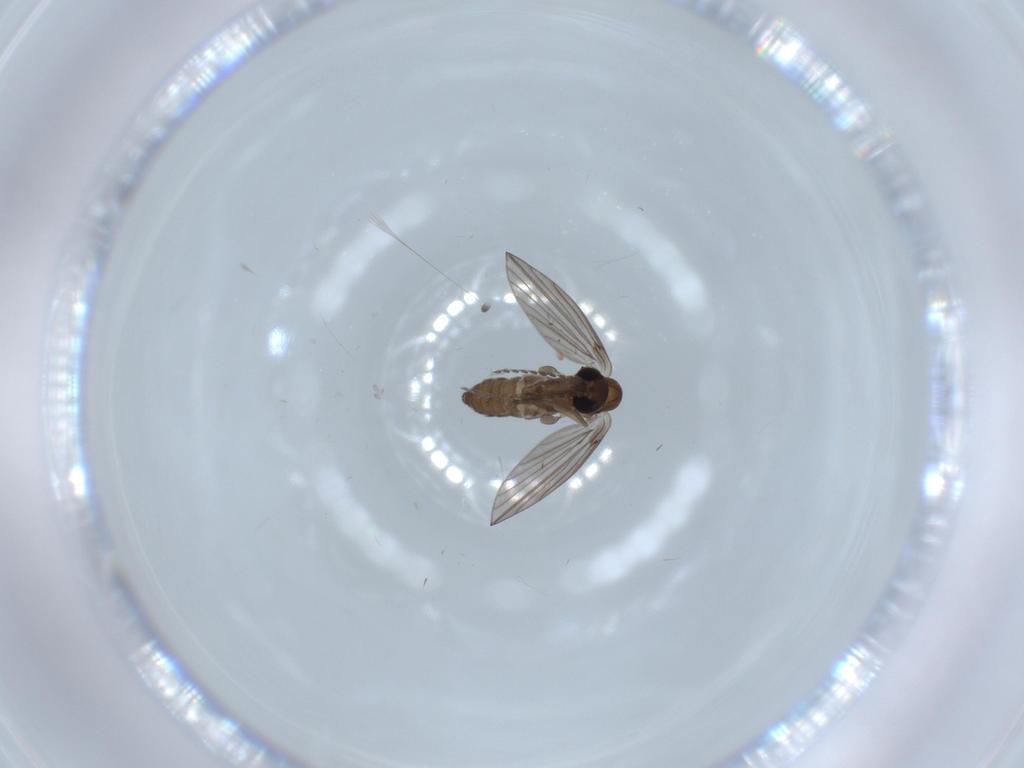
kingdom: Animalia
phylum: Arthropoda
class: Insecta
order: Diptera
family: Psychodidae
